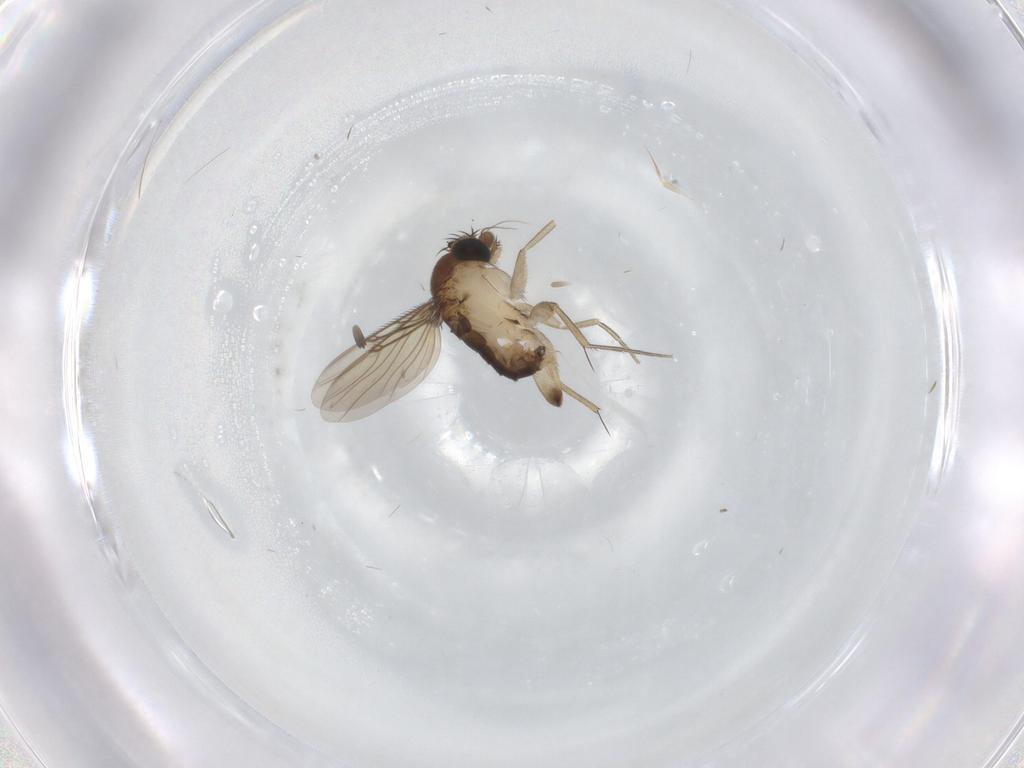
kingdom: Animalia
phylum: Arthropoda
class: Insecta
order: Diptera
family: Phoridae
